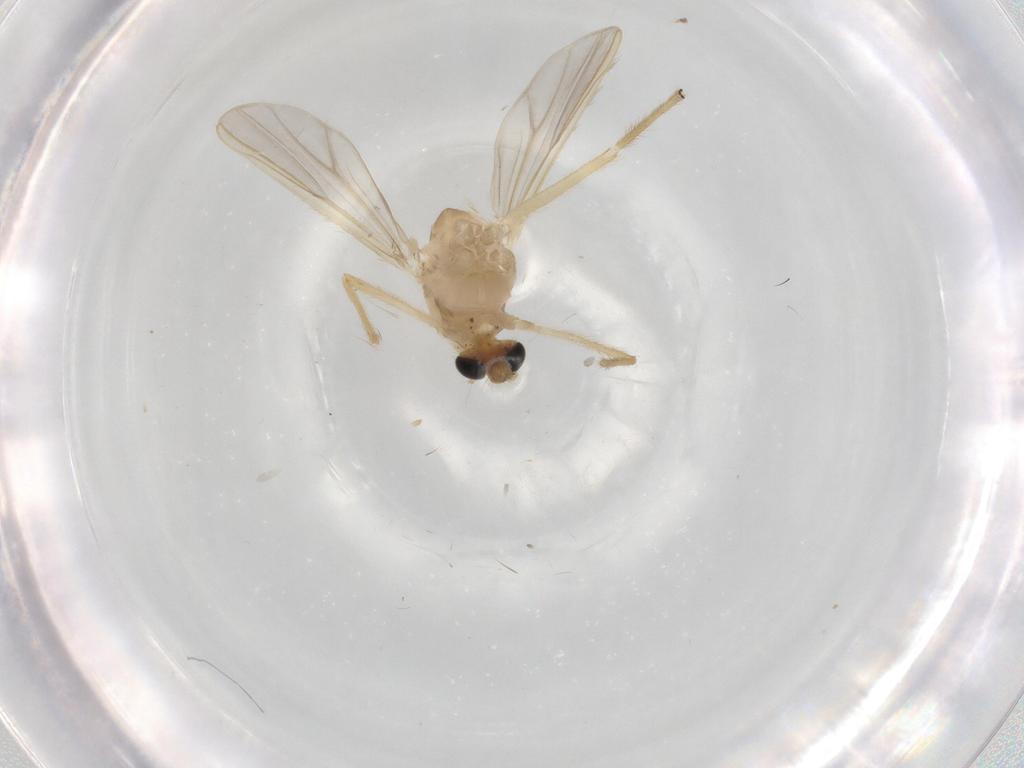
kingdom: Animalia
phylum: Arthropoda
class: Insecta
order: Diptera
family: Chironomidae
